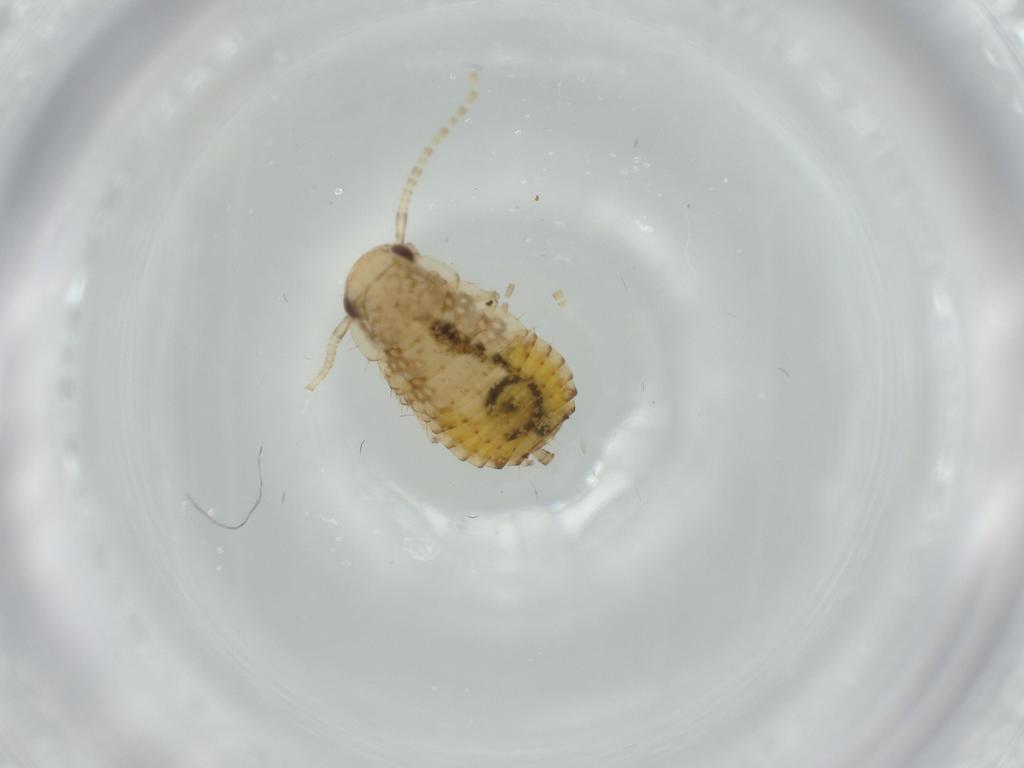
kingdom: Animalia
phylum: Arthropoda
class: Insecta
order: Blattodea
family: Ectobiidae
